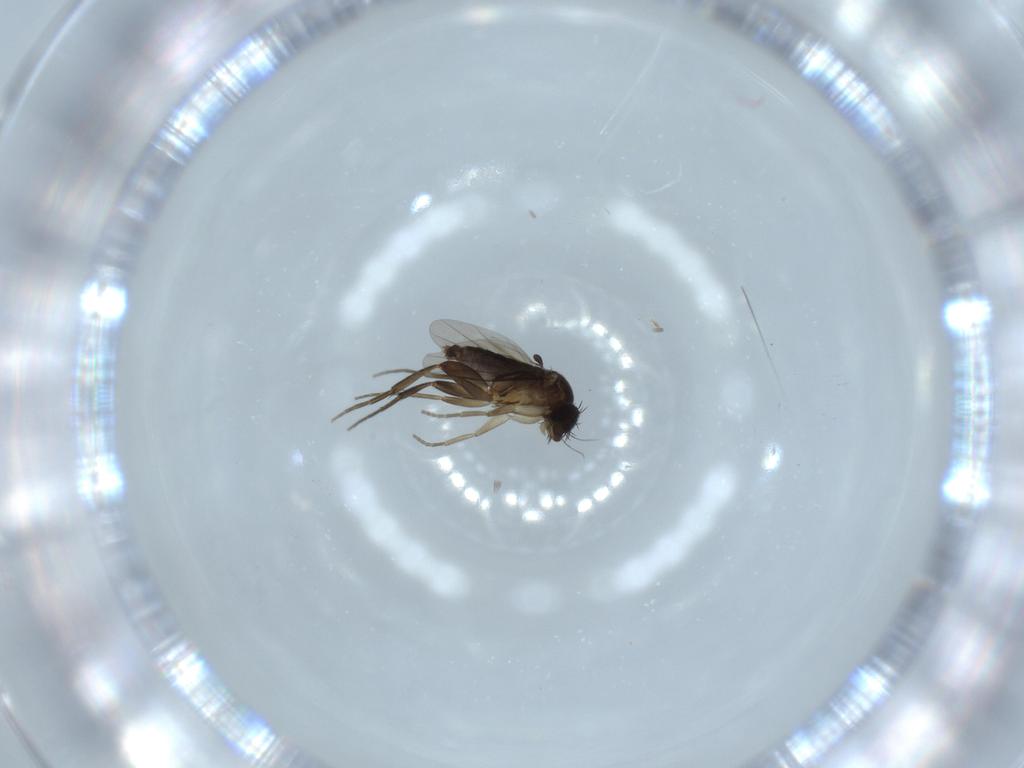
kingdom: Animalia
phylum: Arthropoda
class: Insecta
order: Diptera
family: Phoridae
